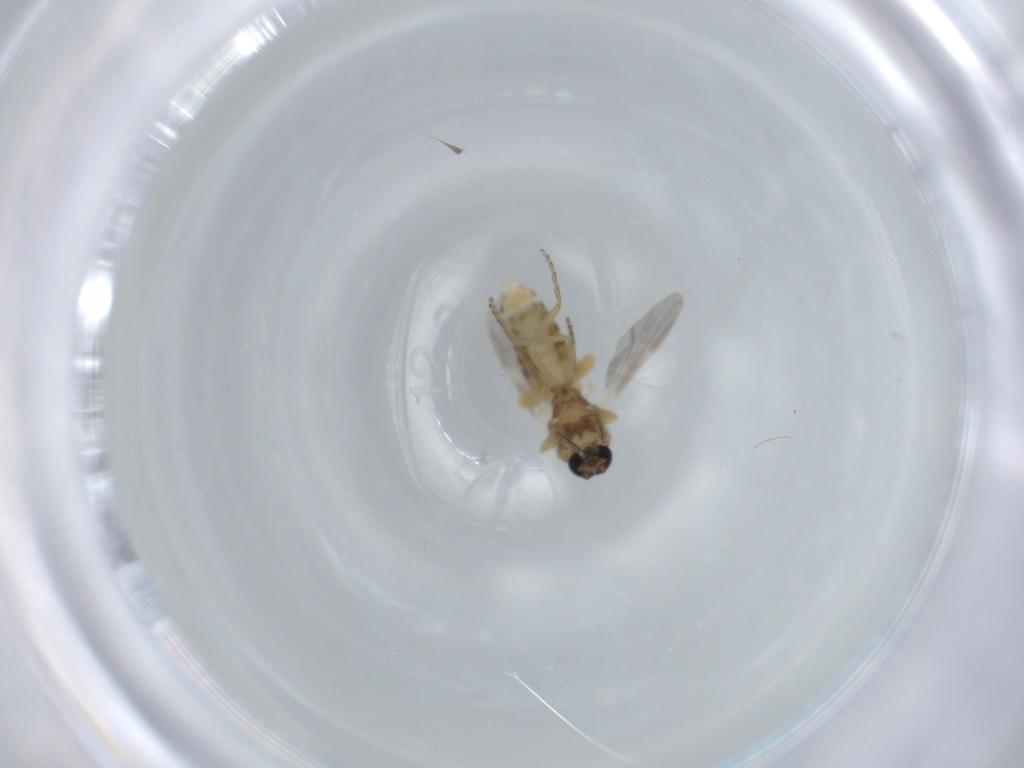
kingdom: Animalia
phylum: Arthropoda
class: Insecta
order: Diptera
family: Ceratopogonidae
